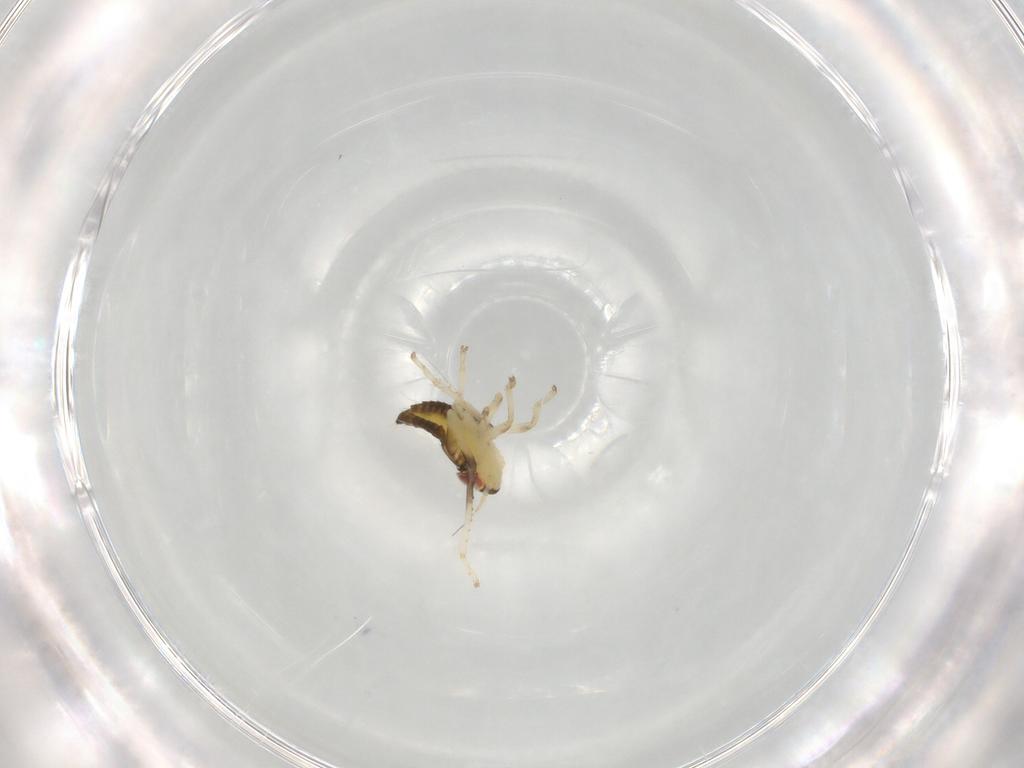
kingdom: Animalia
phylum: Arthropoda
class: Insecta
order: Hemiptera
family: Cicadellidae
